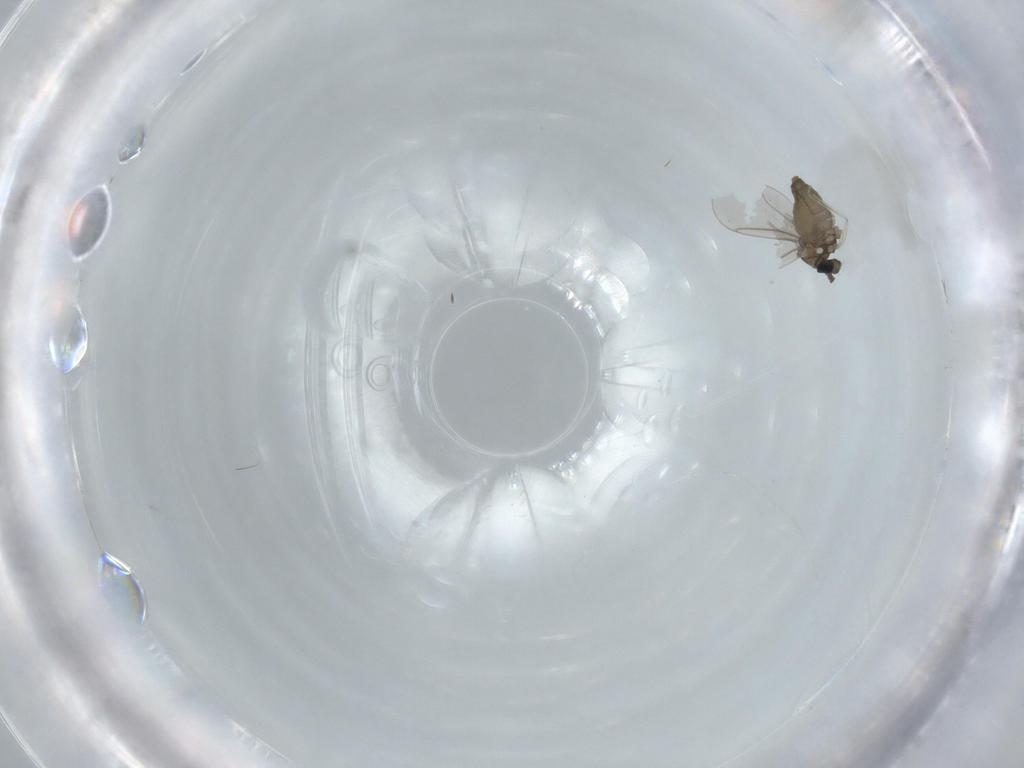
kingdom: Animalia
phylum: Arthropoda
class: Insecta
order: Diptera
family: Cecidomyiidae
